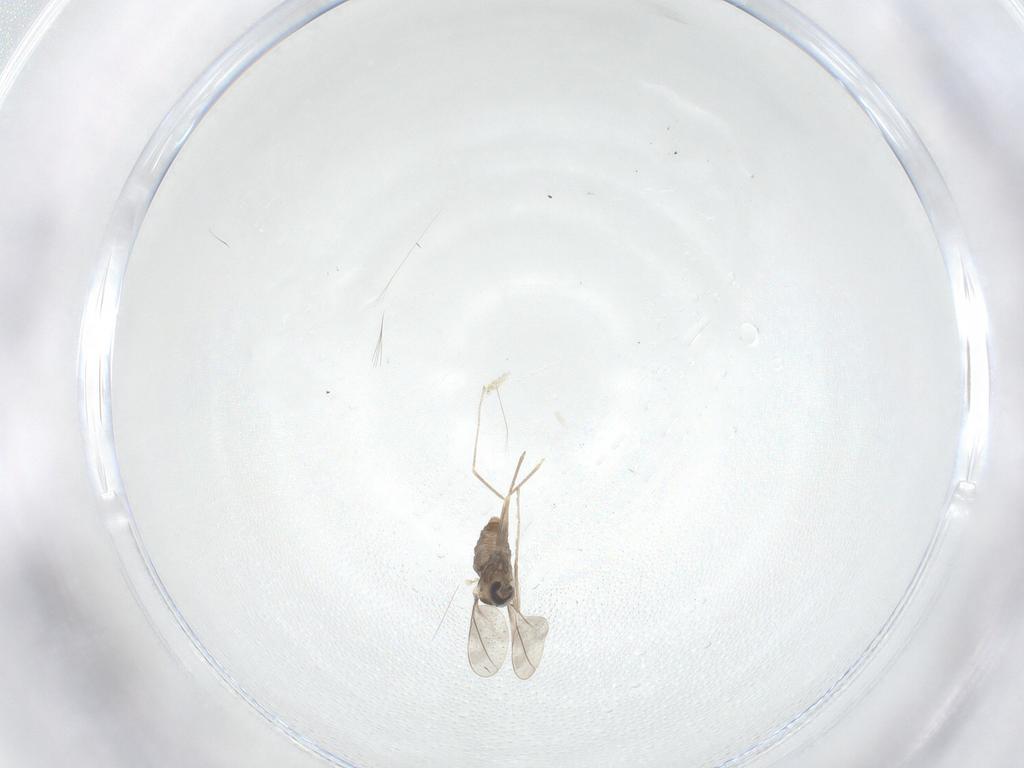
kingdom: Animalia
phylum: Arthropoda
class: Insecta
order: Diptera
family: Cecidomyiidae
